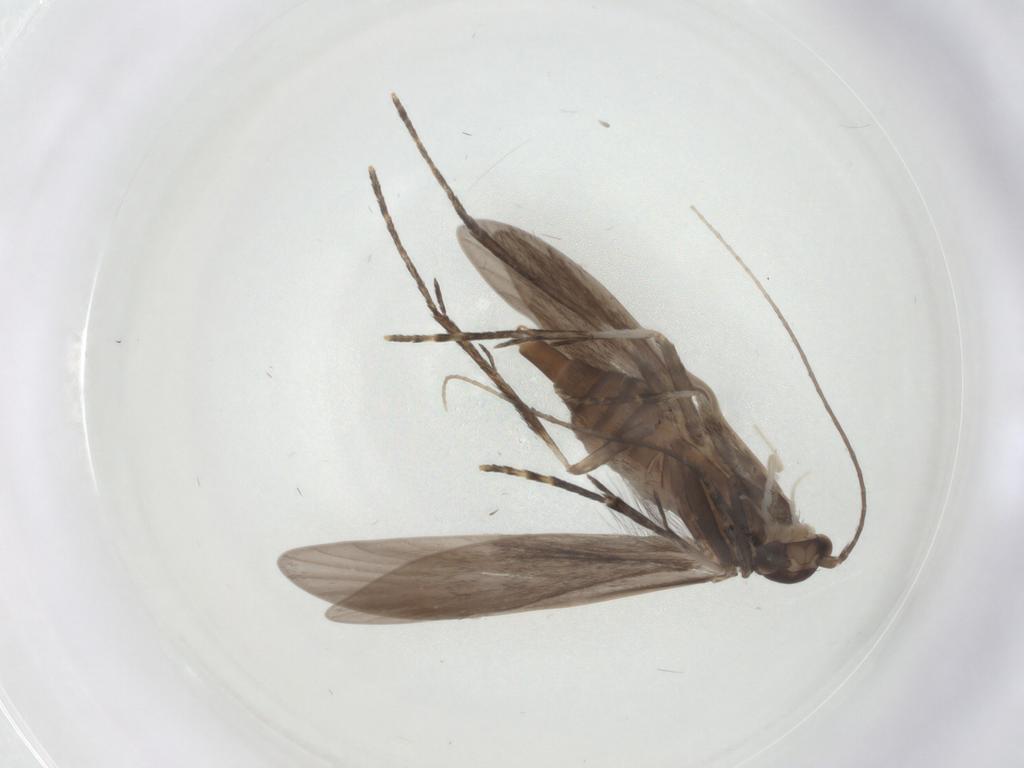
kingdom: Animalia
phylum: Arthropoda
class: Insecta
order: Trichoptera
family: Xiphocentronidae
